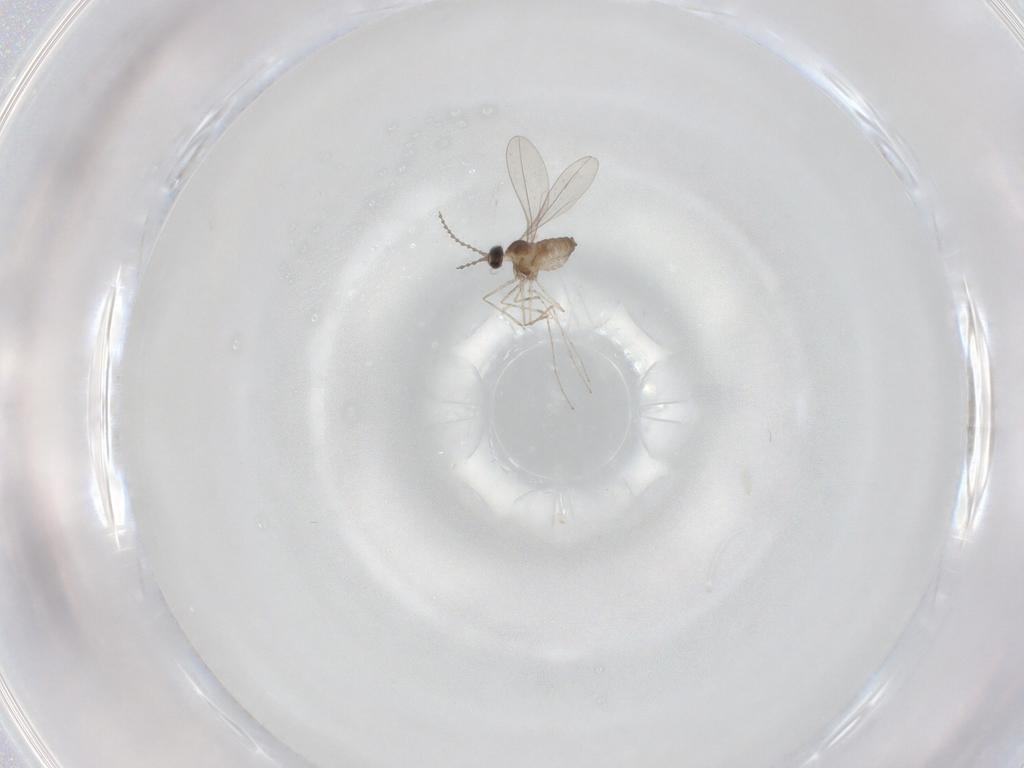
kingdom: Animalia
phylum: Arthropoda
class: Insecta
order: Diptera
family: Cecidomyiidae
